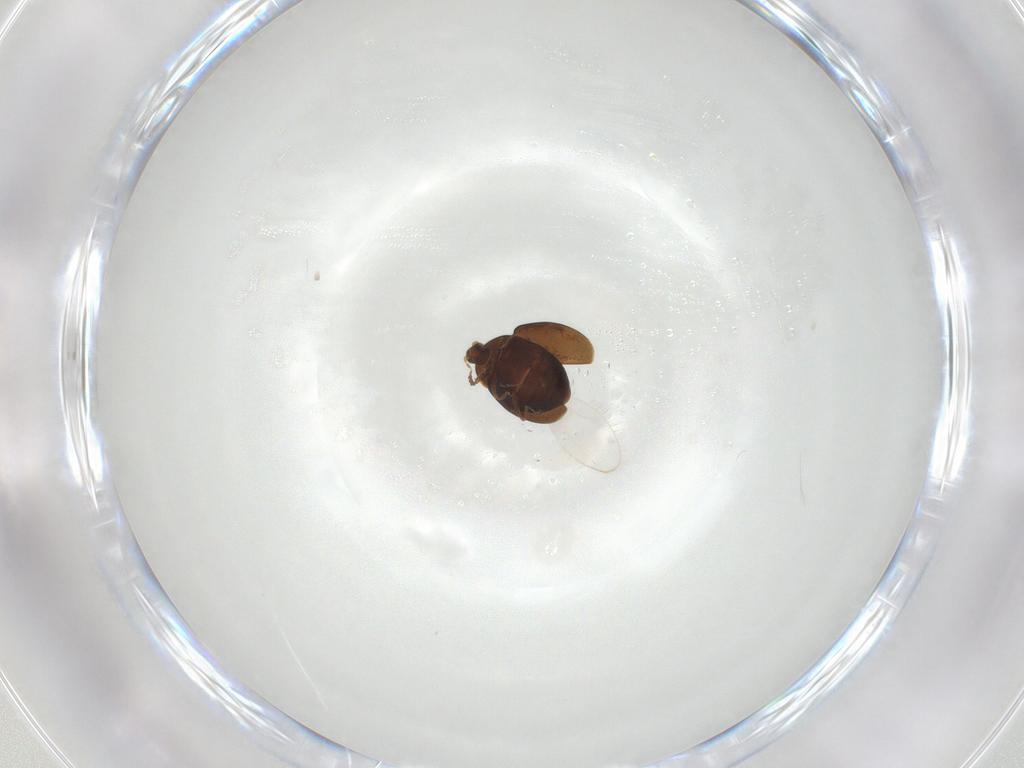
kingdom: Animalia
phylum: Arthropoda
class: Insecta
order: Coleoptera
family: Corylophidae
